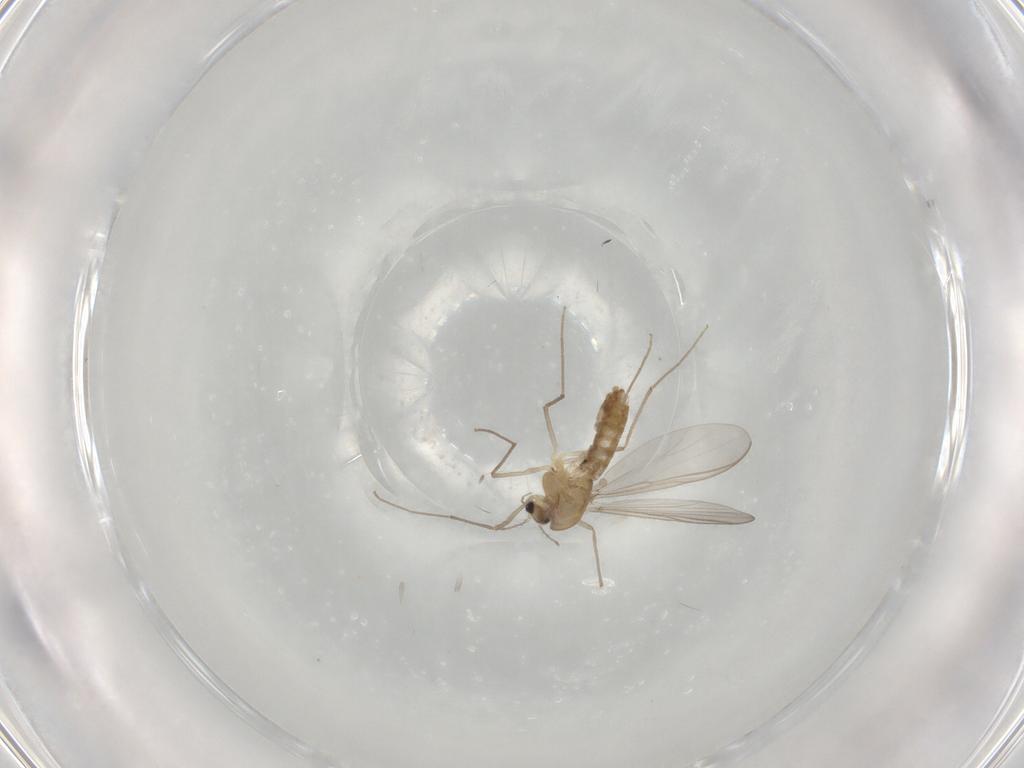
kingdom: Animalia
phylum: Arthropoda
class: Insecta
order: Diptera
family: Chironomidae
